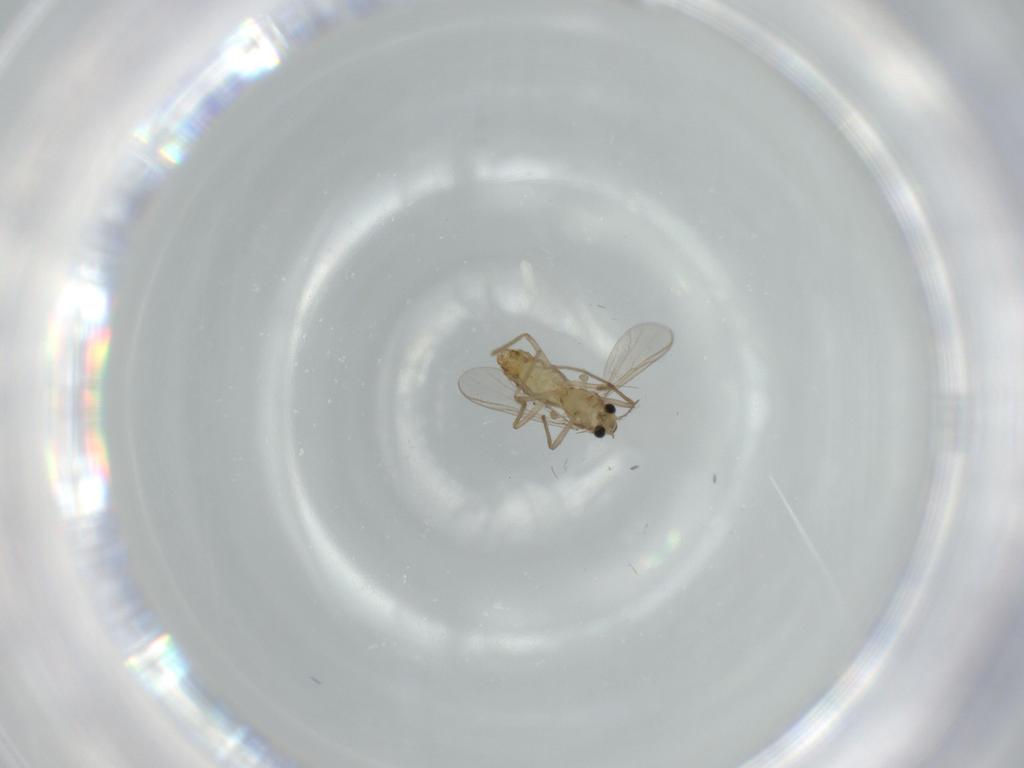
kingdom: Animalia
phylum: Arthropoda
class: Insecta
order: Diptera
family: Chironomidae
